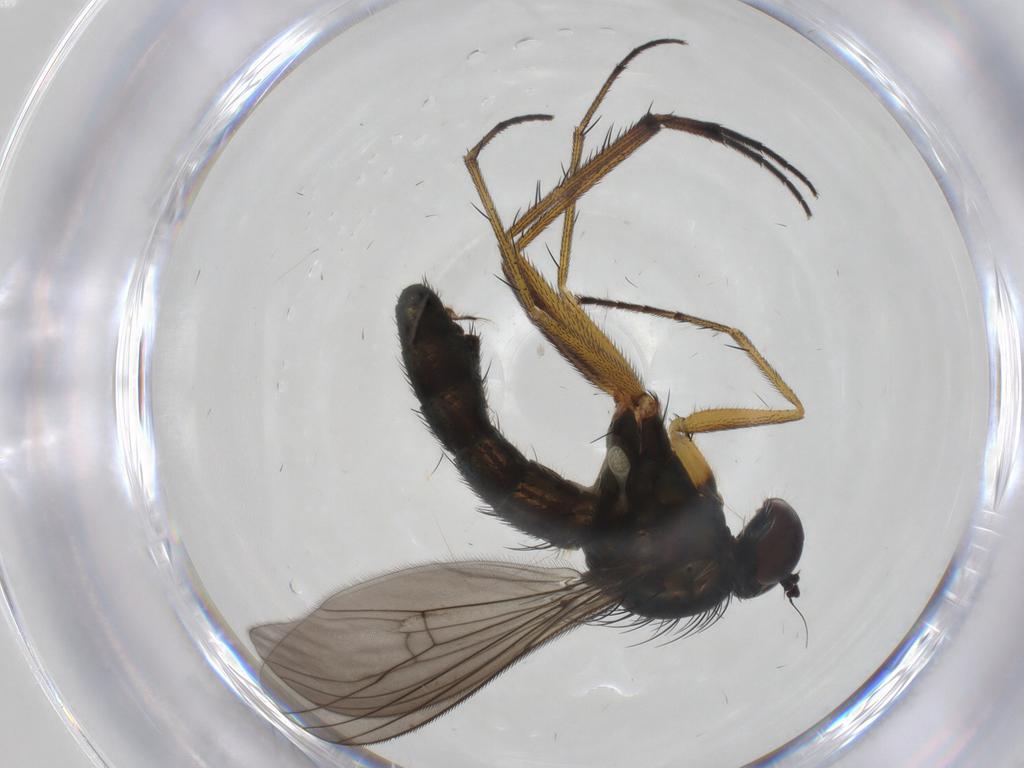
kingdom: Animalia
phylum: Arthropoda
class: Insecta
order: Diptera
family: Dolichopodidae
